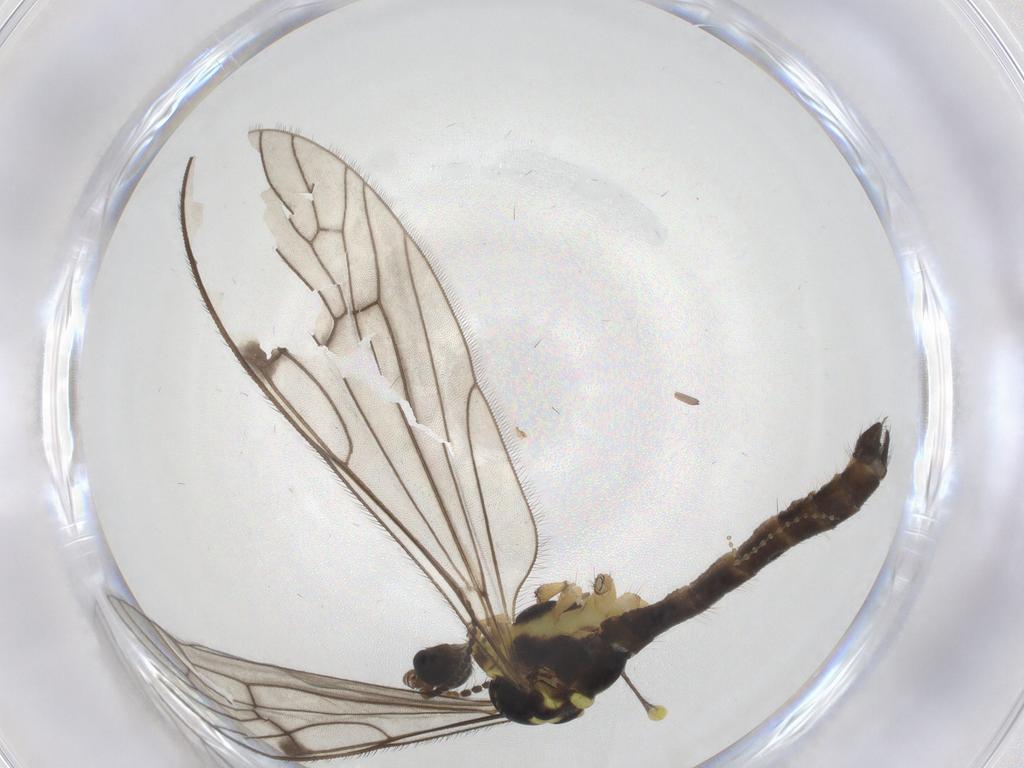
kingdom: Animalia
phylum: Arthropoda
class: Insecta
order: Diptera
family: Limoniidae
